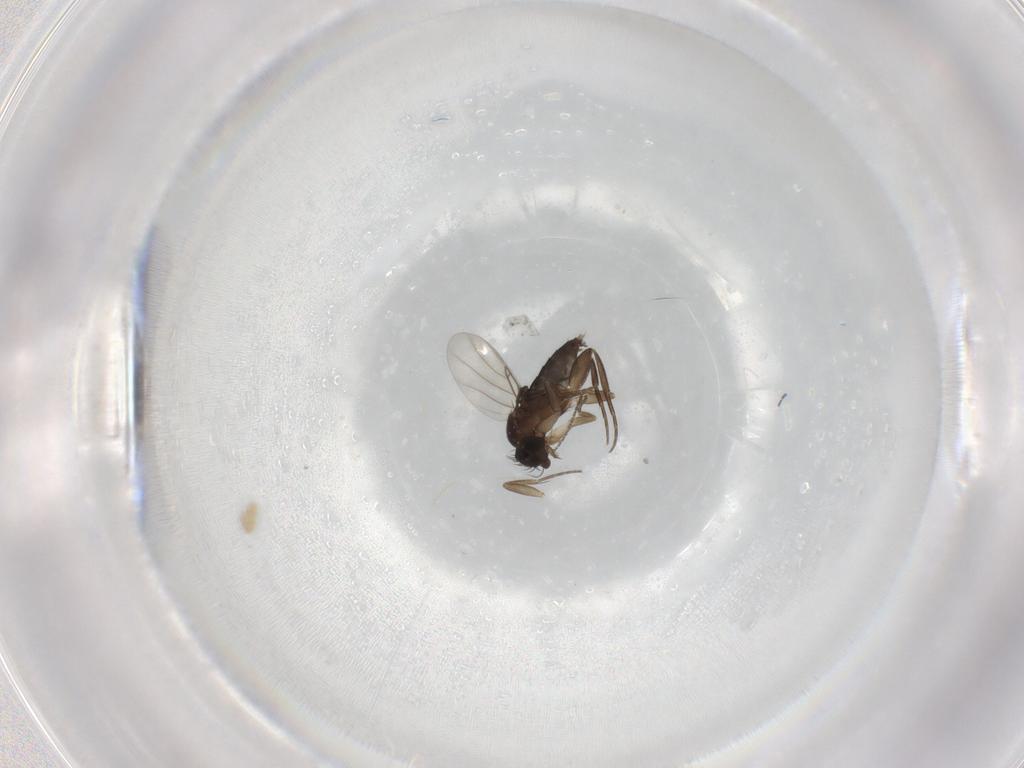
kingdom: Animalia
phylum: Arthropoda
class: Insecta
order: Diptera
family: Phoridae
